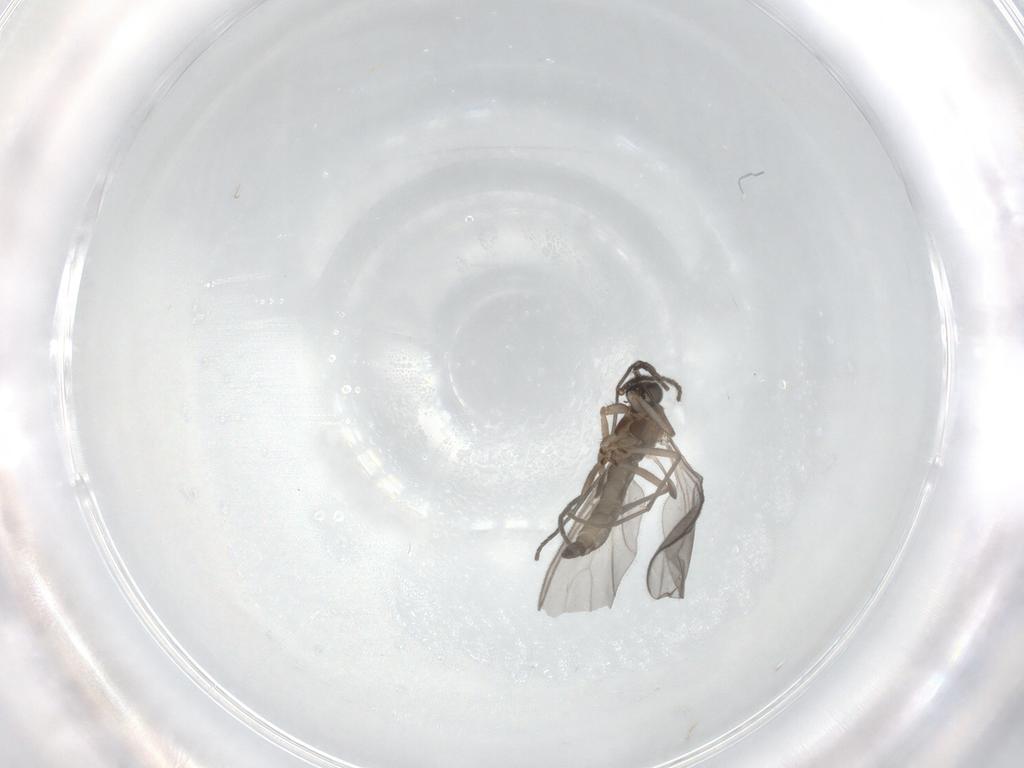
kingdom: Animalia
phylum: Arthropoda
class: Insecta
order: Diptera
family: Sciaridae
